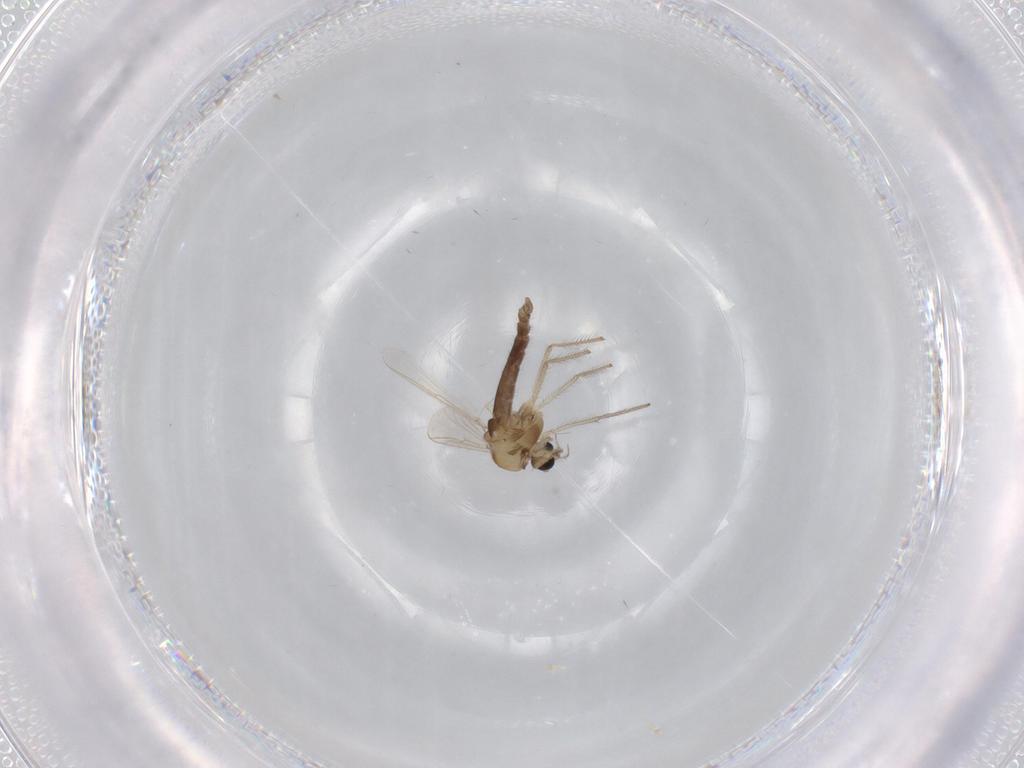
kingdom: Animalia
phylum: Arthropoda
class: Insecta
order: Diptera
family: Chironomidae
